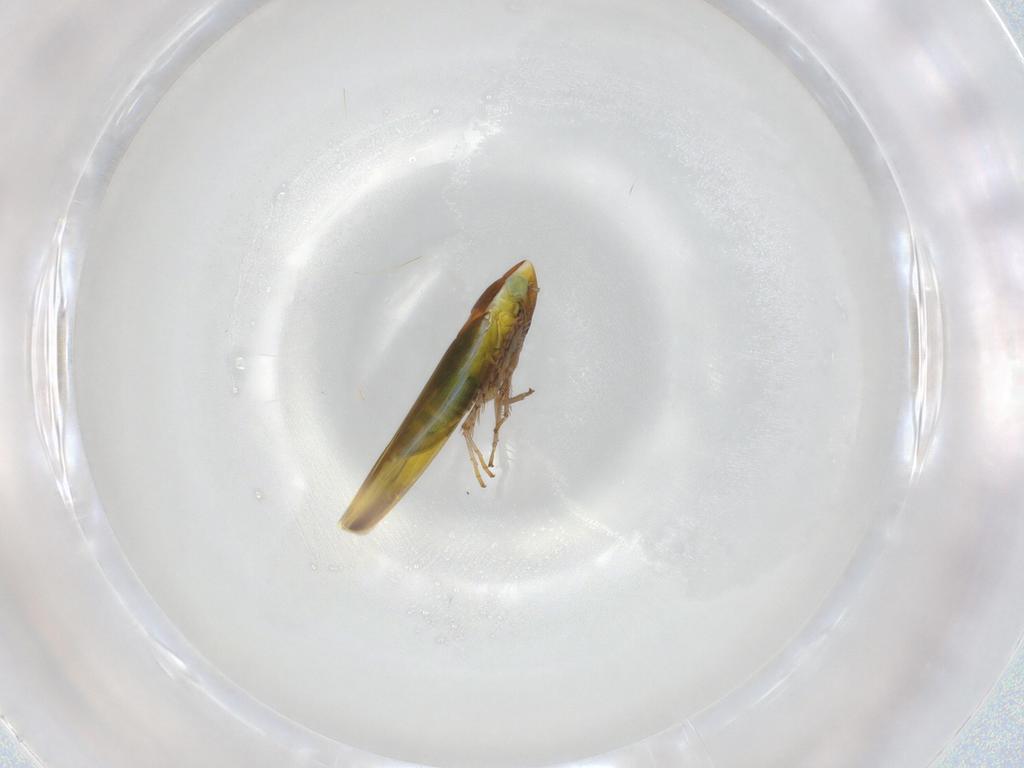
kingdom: Animalia
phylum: Arthropoda
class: Insecta
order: Hemiptera
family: Cicadellidae
